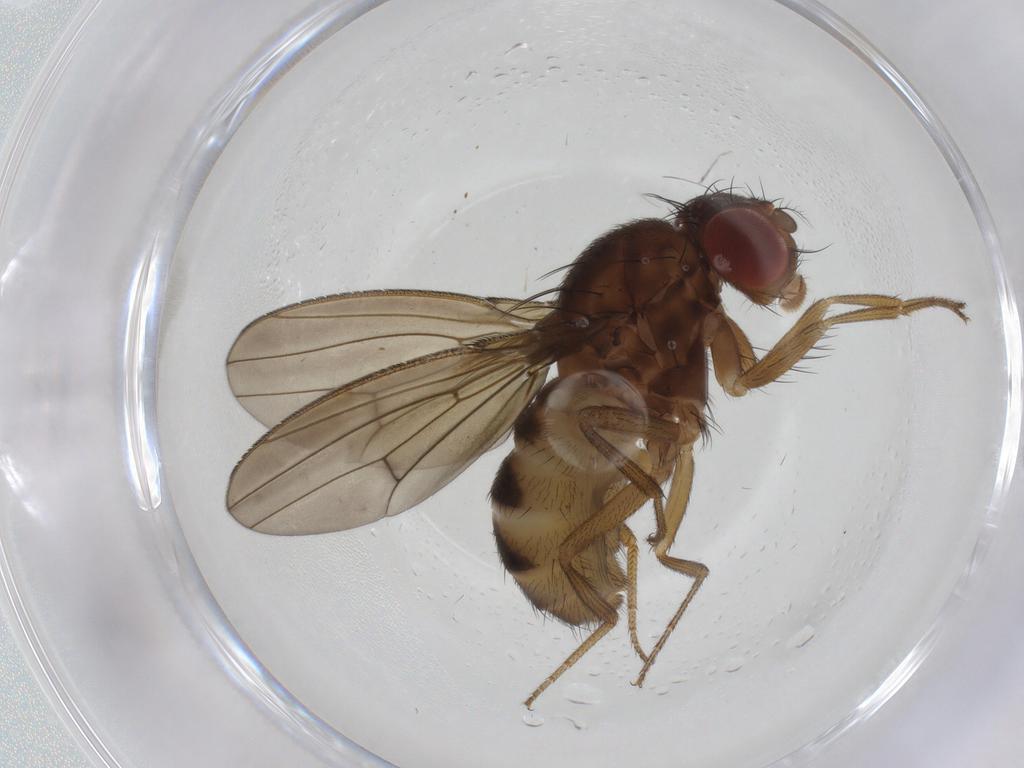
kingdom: Animalia
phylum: Arthropoda
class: Insecta
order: Diptera
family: Drosophilidae
